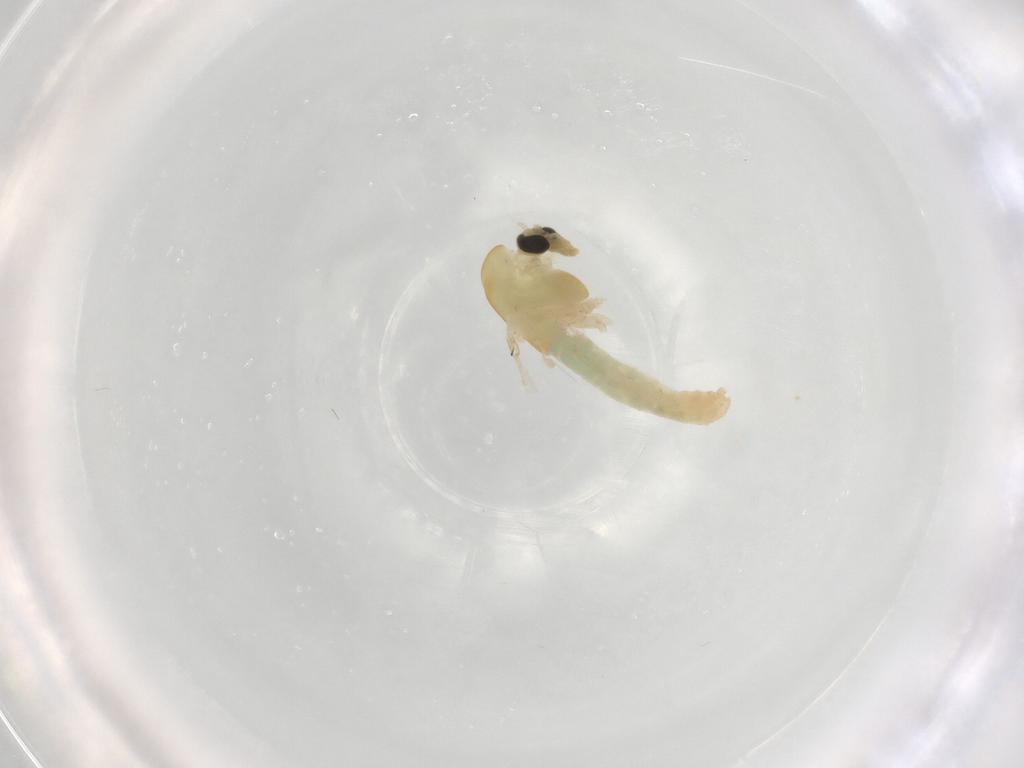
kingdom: Animalia
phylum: Arthropoda
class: Insecta
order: Diptera
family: Chironomidae
